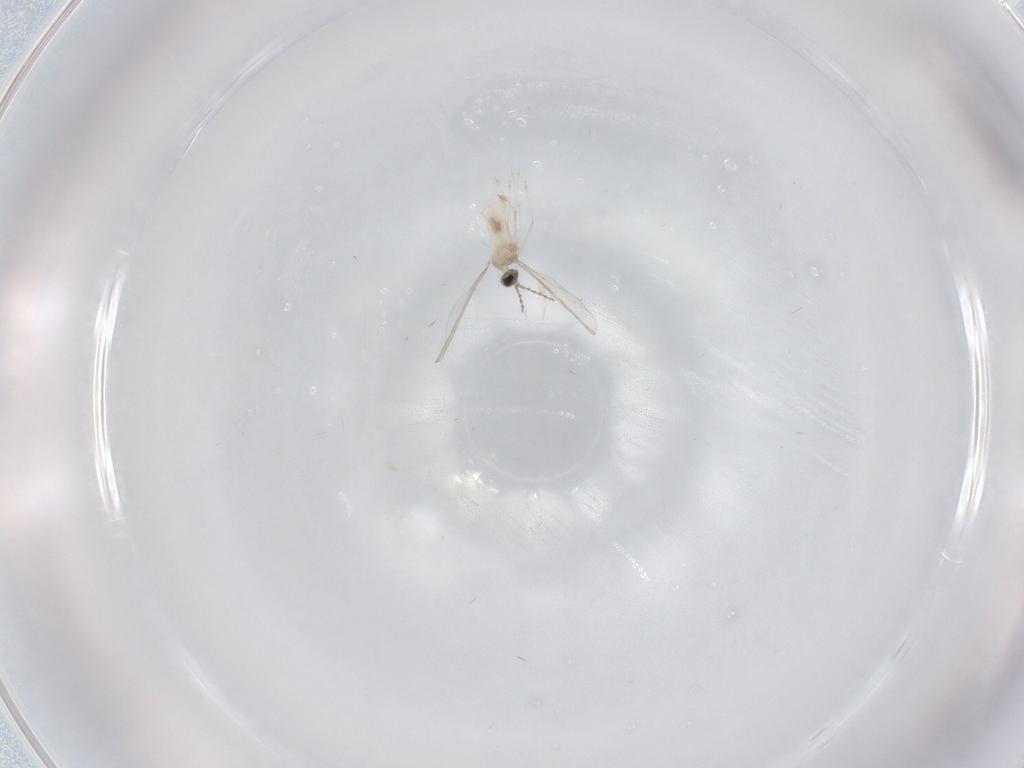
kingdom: Animalia
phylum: Arthropoda
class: Insecta
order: Diptera
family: Cecidomyiidae
